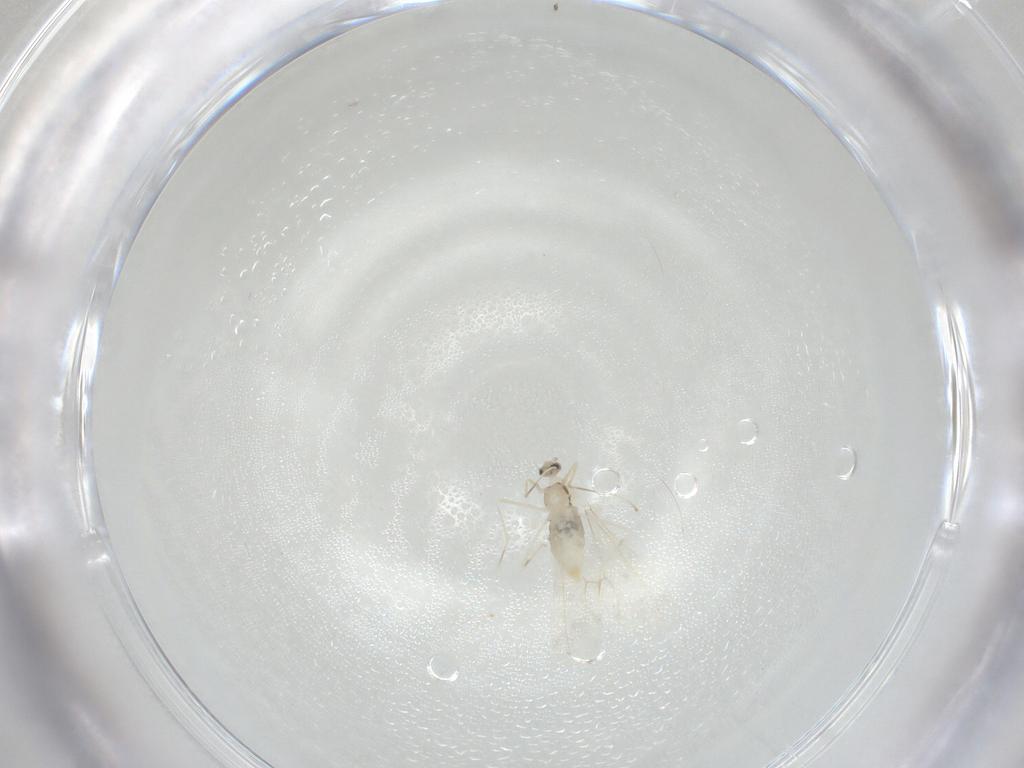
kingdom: Animalia
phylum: Arthropoda
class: Insecta
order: Diptera
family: Cecidomyiidae
